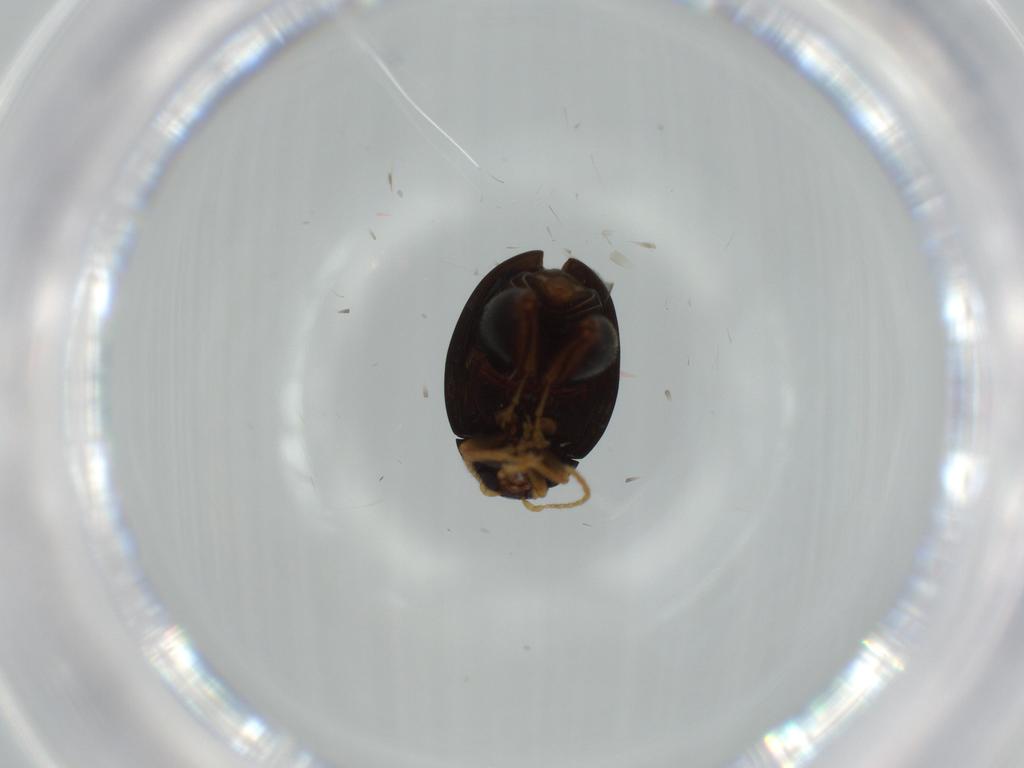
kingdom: Animalia
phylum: Arthropoda
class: Insecta
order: Coleoptera
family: Chrysomelidae
